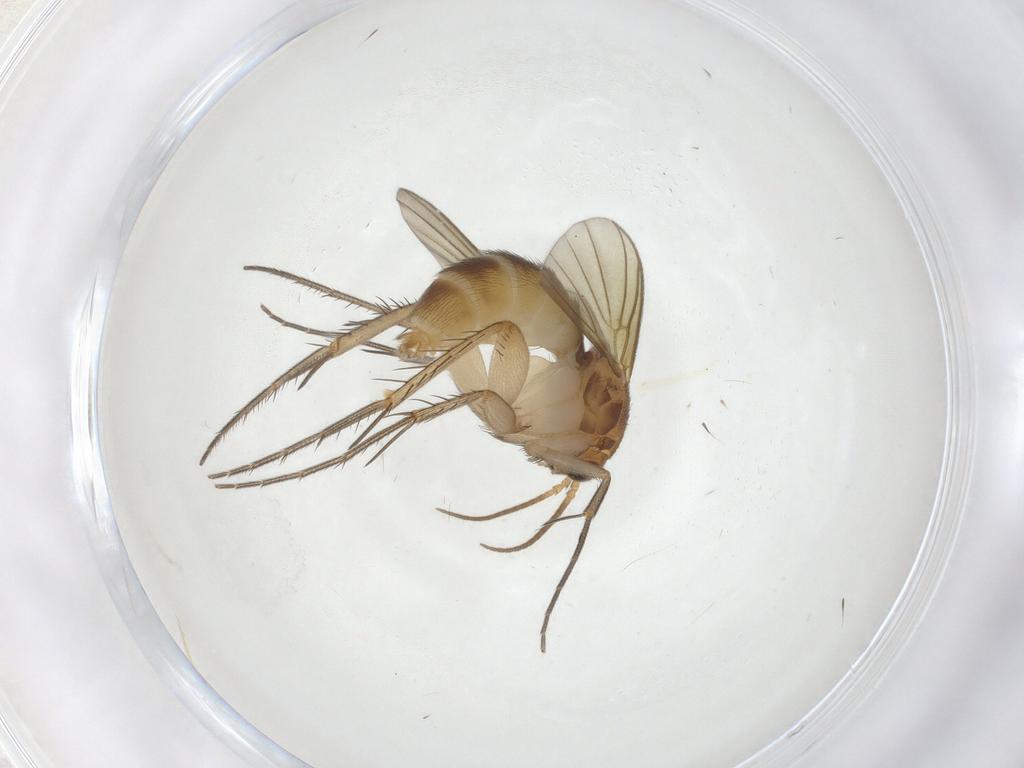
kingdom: Animalia
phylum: Arthropoda
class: Insecta
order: Diptera
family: Mycetophilidae
